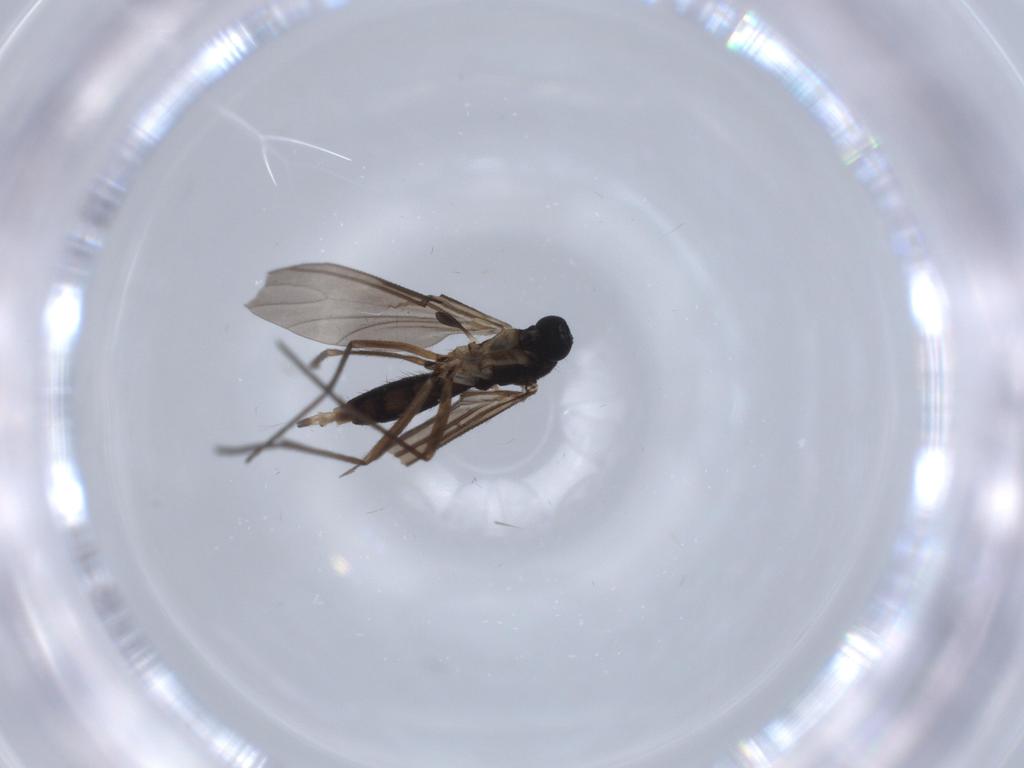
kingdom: Animalia
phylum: Arthropoda
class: Insecta
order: Diptera
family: Sciaridae
